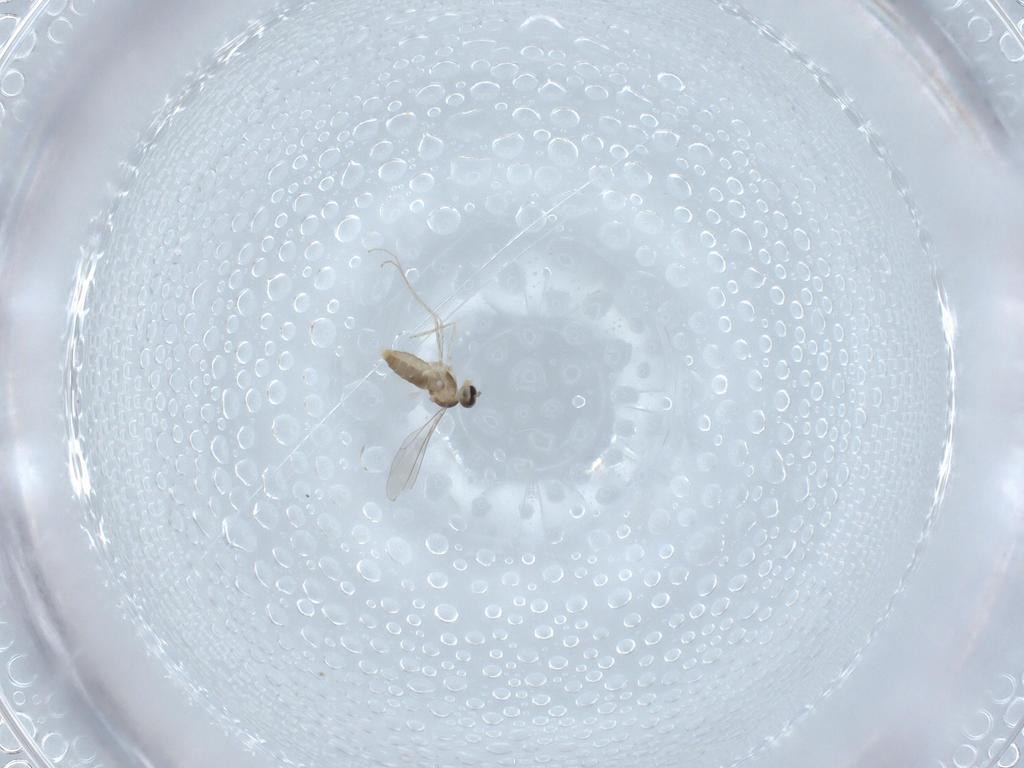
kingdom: Animalia
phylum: Arthropoda
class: Insecta
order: Diptera
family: Cecidomyiidae
